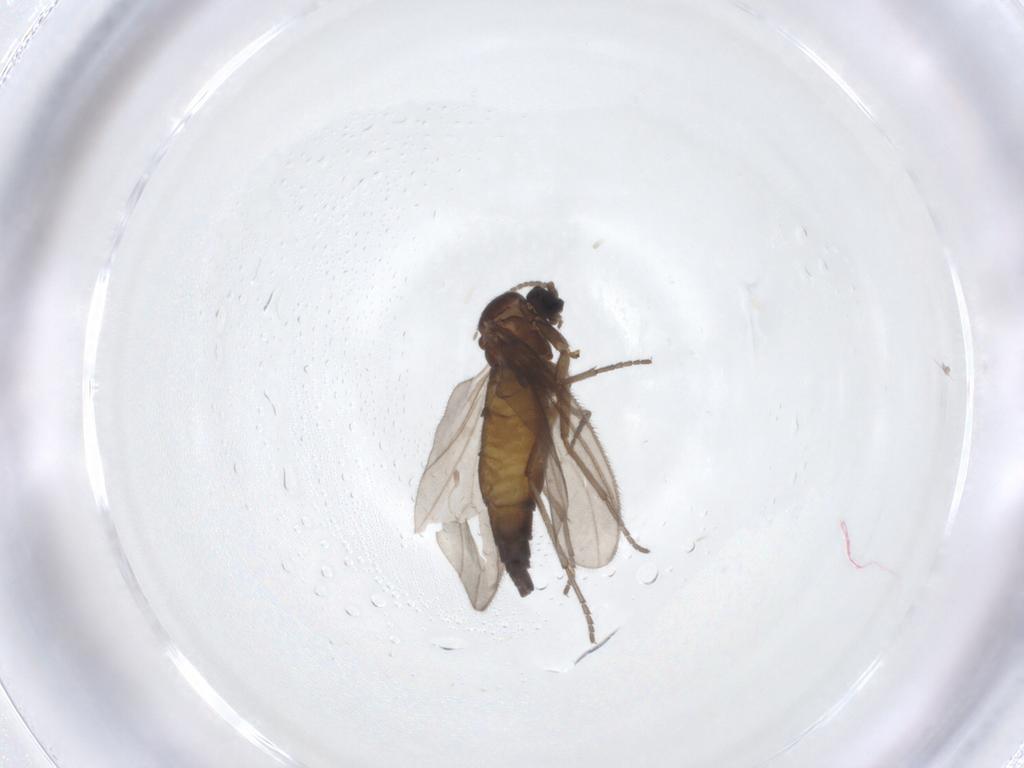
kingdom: Animalia
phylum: Arthropoda
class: Insecta
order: Diptera
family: Sciaridae
